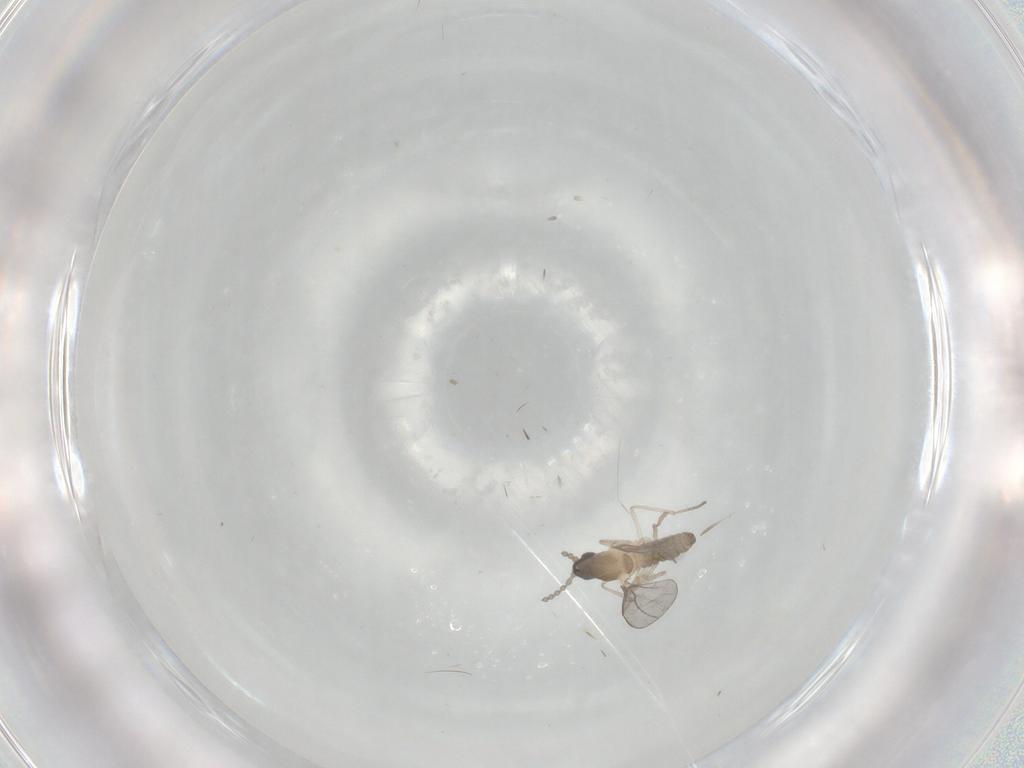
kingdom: Animalia
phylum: Arthropoda
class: Insecta
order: Diptera
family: Cecidomyiidae
